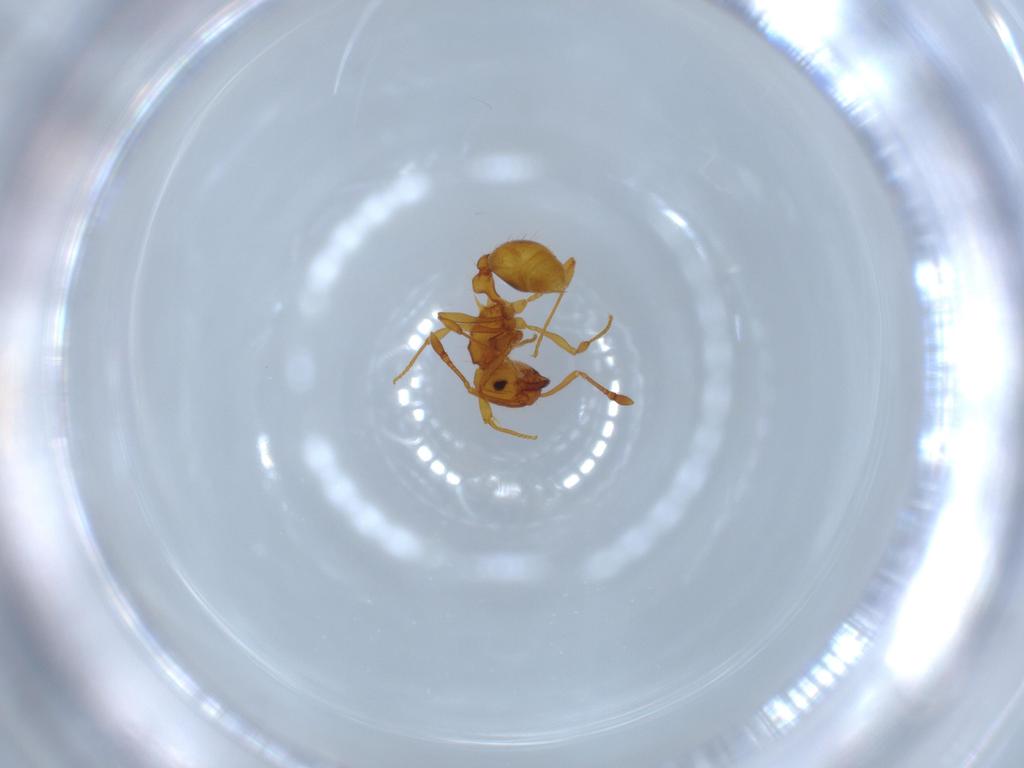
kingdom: Animalia
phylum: Arthropoda
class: Insecta
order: Hymenoptera
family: Formicidae
